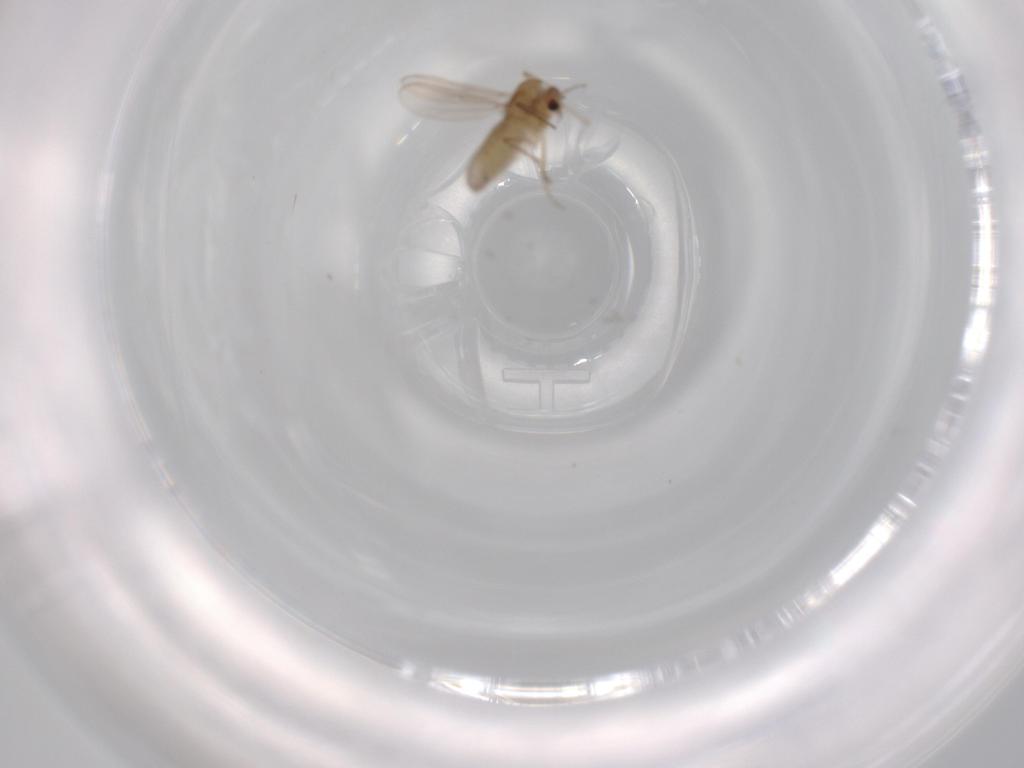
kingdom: Animalia
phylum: Arthropoda
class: Insecta
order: Diptera
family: Chironomidae
